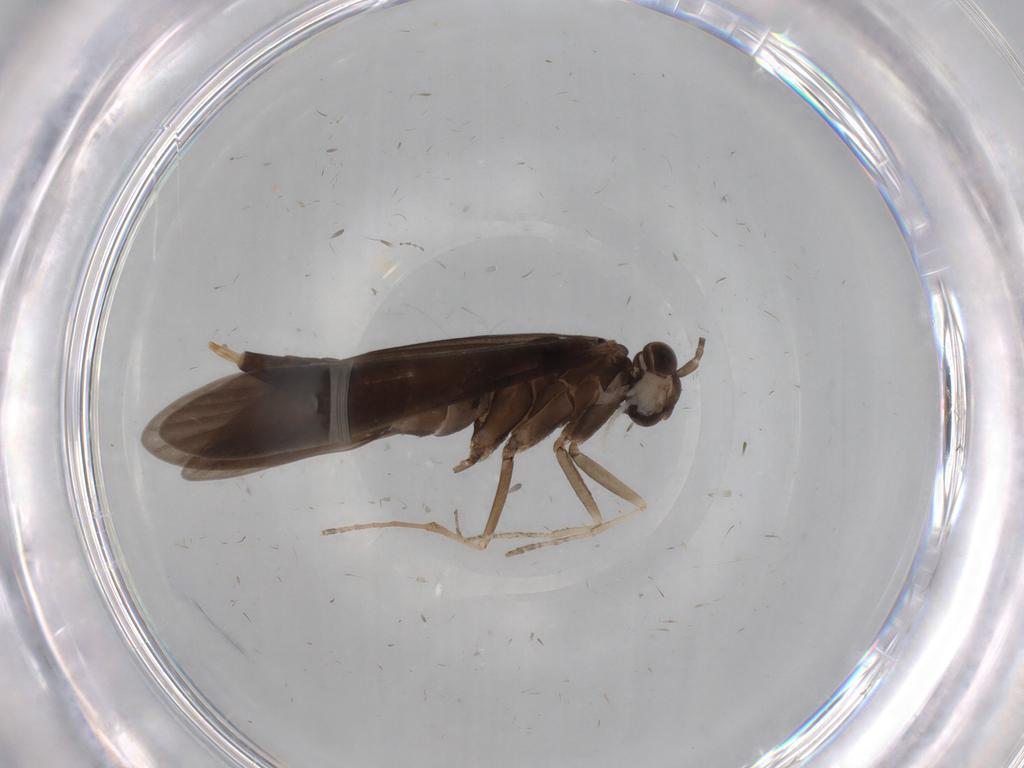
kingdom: Animalia
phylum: Arthropoda
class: Insecta
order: Trichoptera
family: Xiphocentronidae
